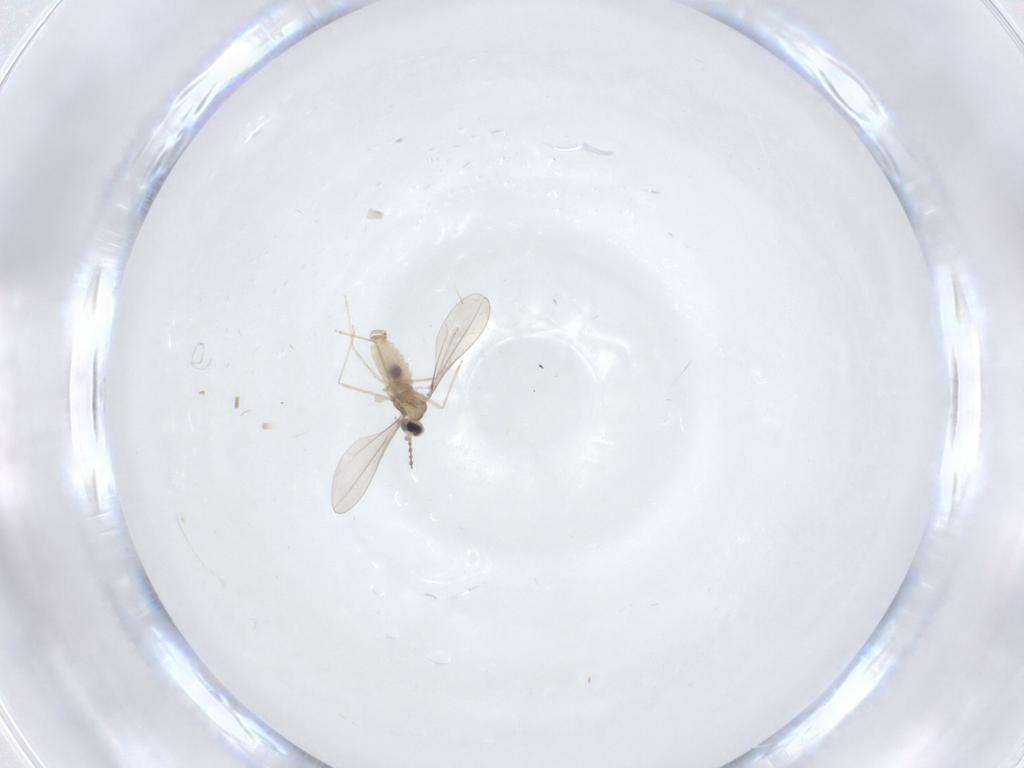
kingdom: Animalia
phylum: Arthropoda
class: Insecta
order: Diptera
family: Phoridae
